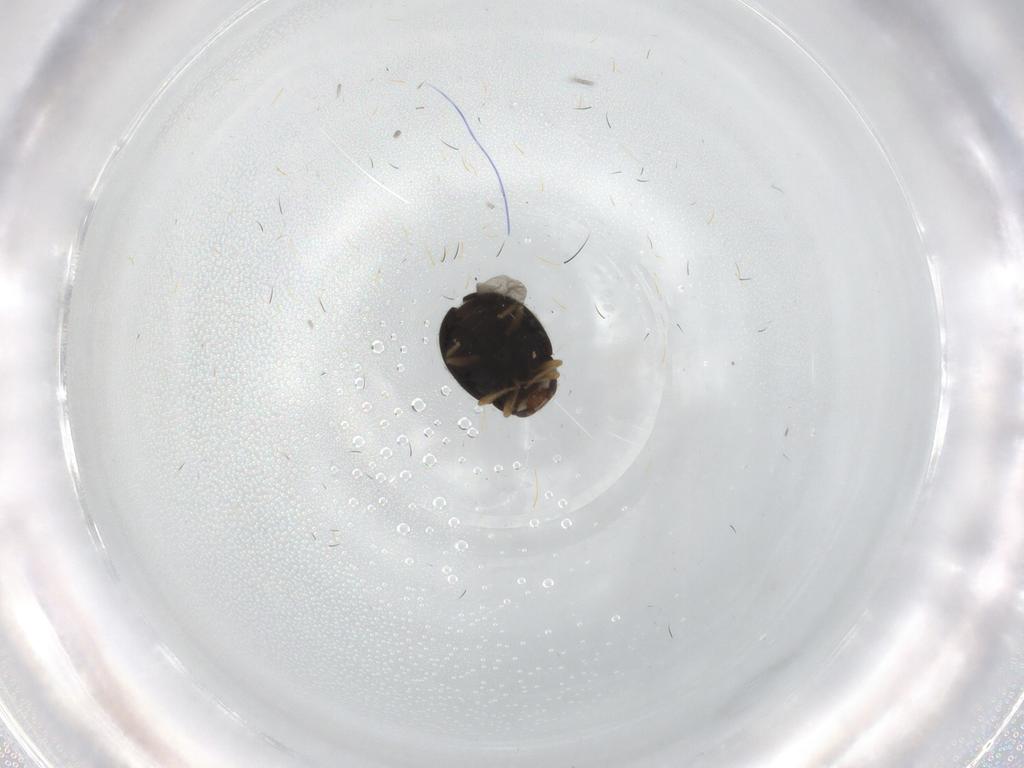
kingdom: Animalia
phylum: Arthropoda
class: Insecta
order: Coleoptera
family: Coccinellidae
